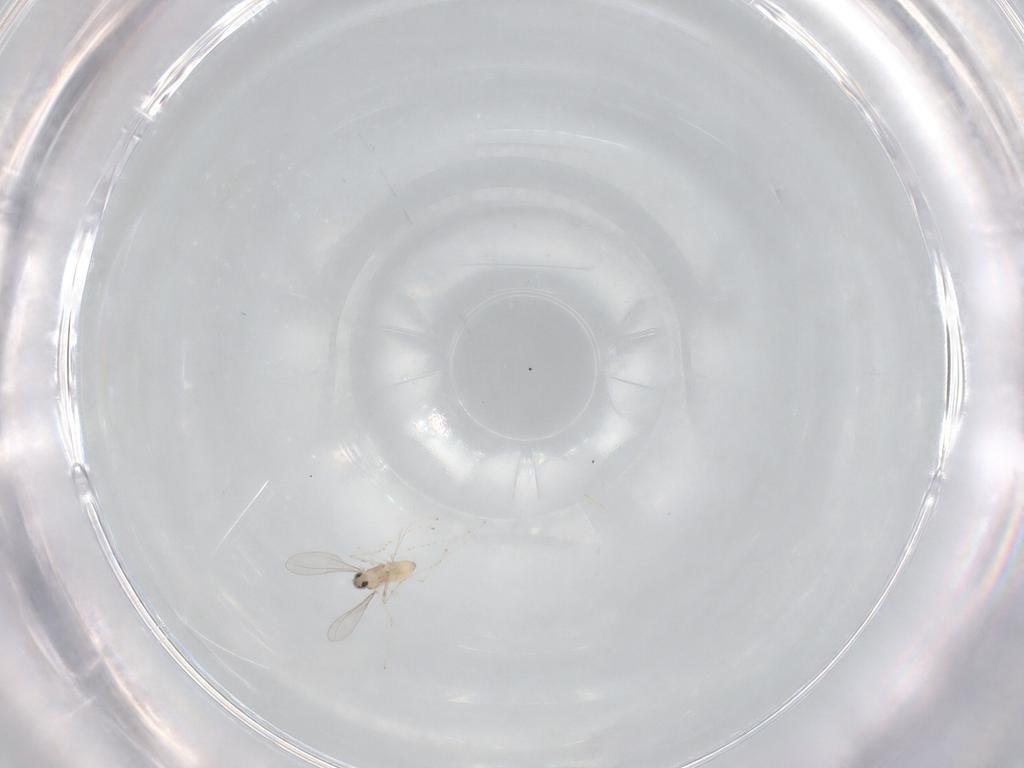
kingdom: Animalia
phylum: Arthropoda
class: Insecta
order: Diptera
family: Cecidomyiidae
